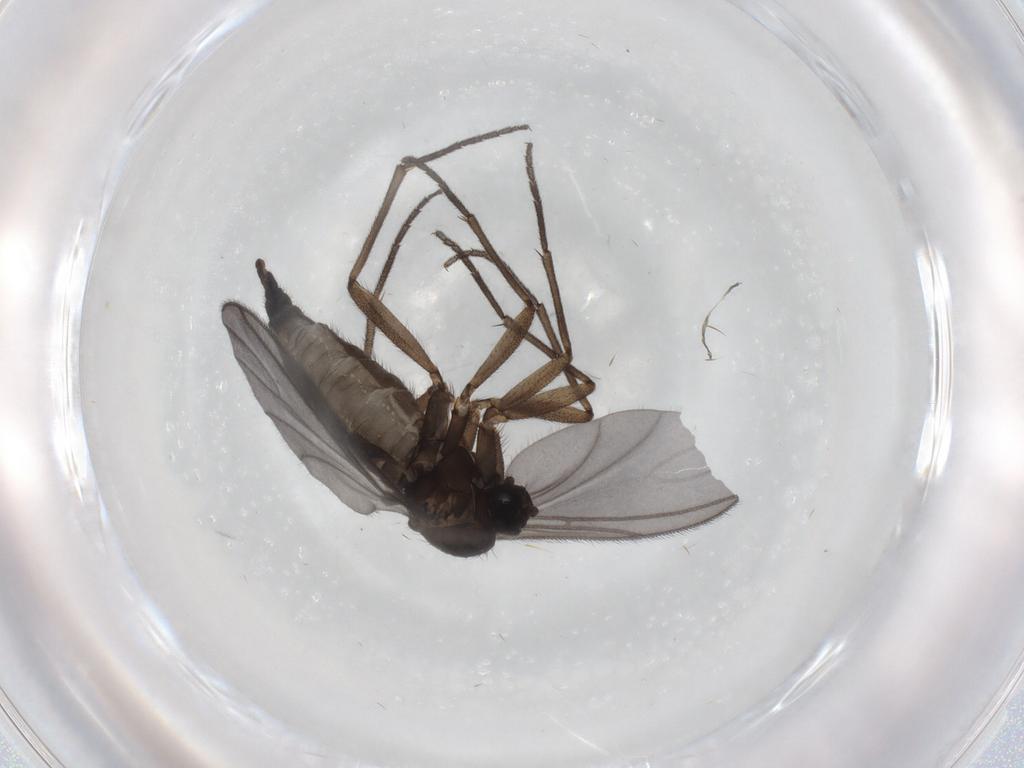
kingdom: Animalia
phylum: Arthropoda
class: Insecta
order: Diptera
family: Sciaridae
